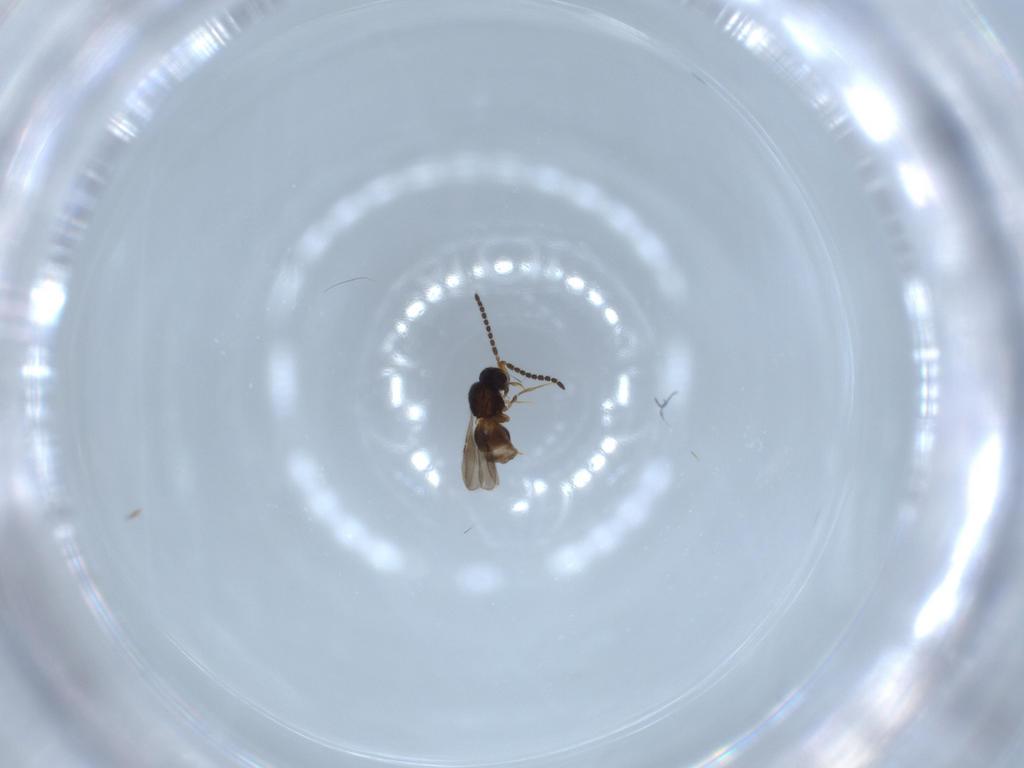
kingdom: Animalia
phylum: Arthropoda
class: Insecta
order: Hymenoptera
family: Ceraphronidae
